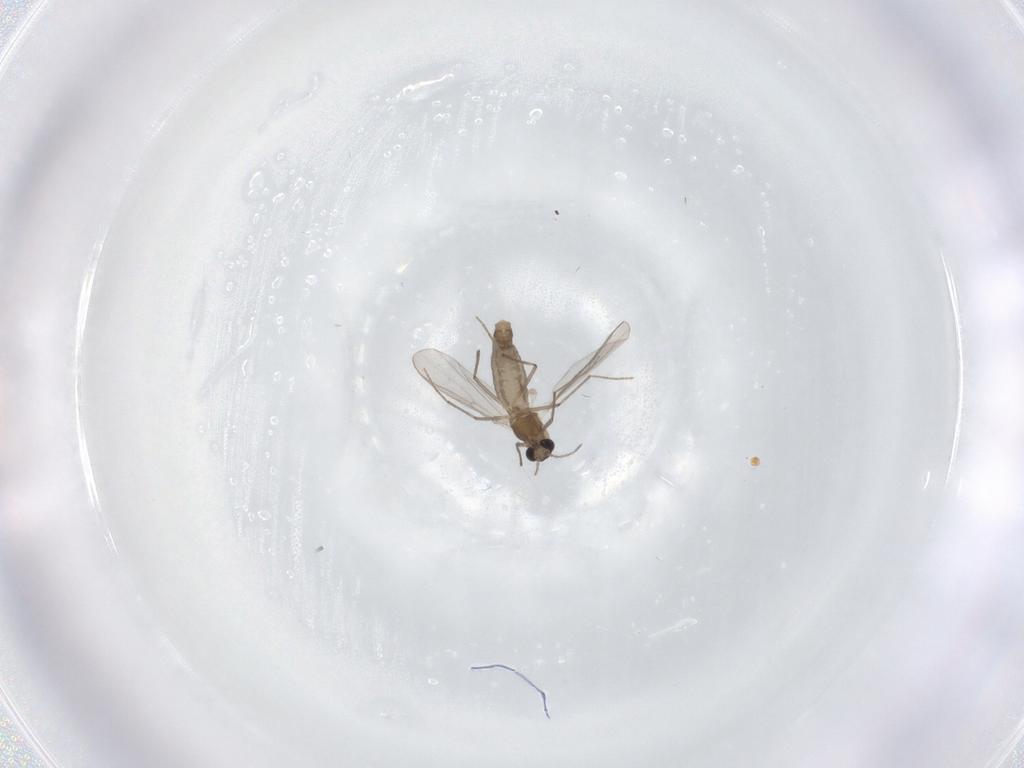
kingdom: Animalia
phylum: Arthropoda
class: Insecta
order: Diptera
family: Chironomidae
